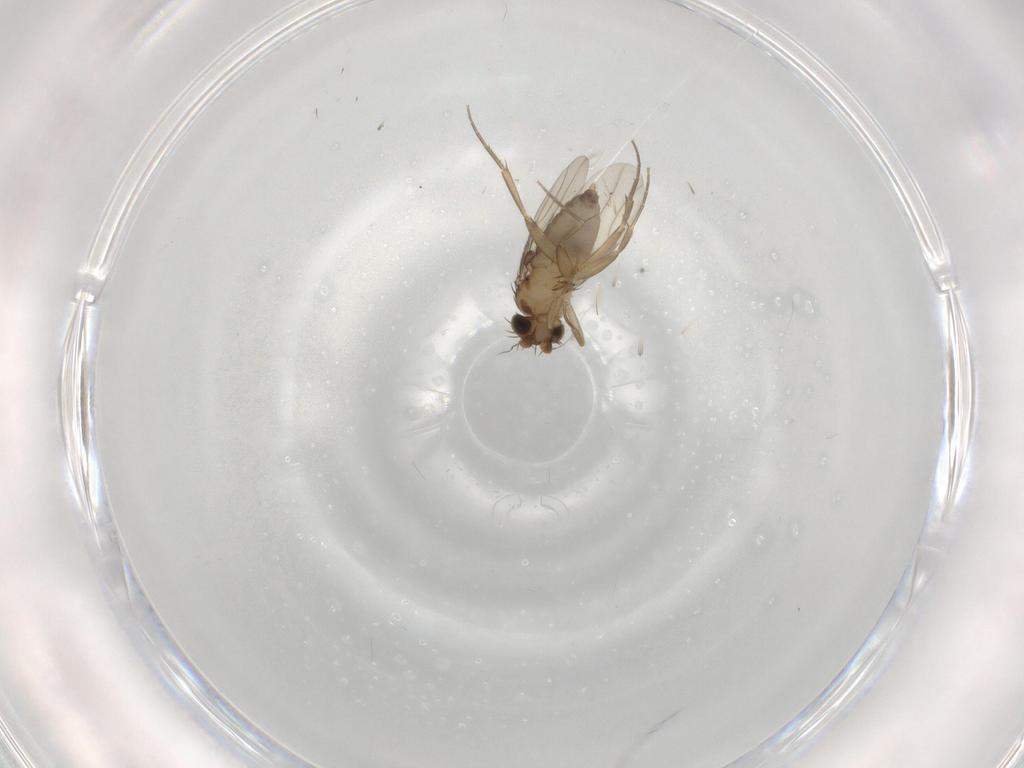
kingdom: Animalia
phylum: Arthropoda
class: Insecta
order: Diptera
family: Phoridae
